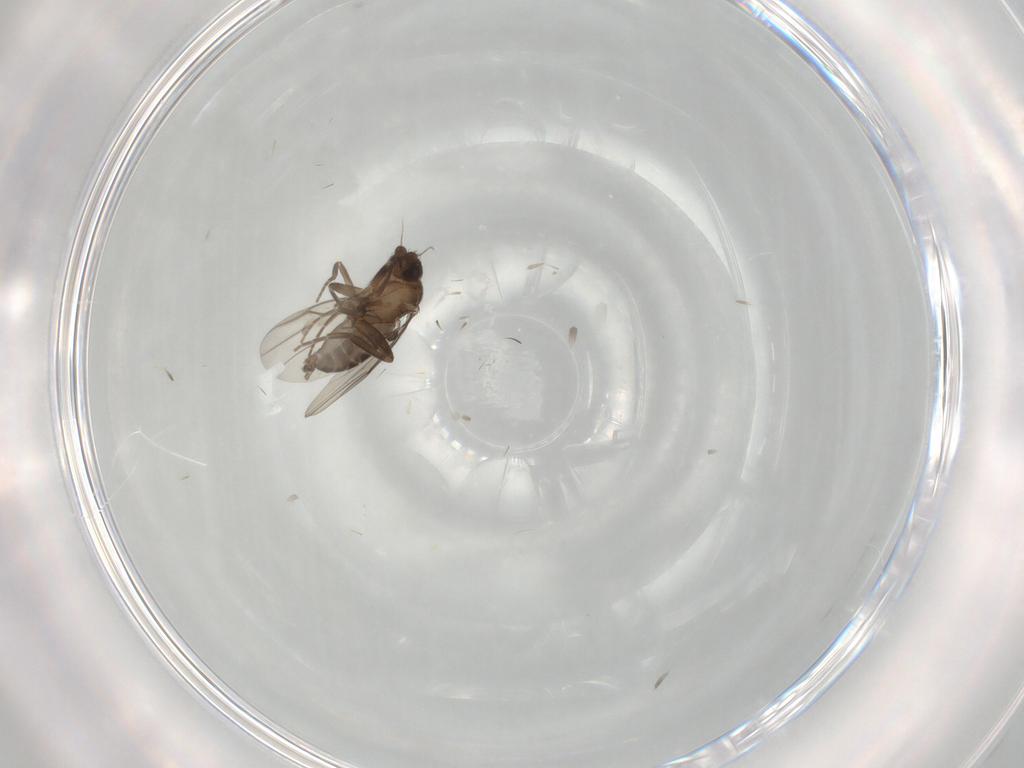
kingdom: Animalia
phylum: Arthropoda
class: Insecta
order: Diptera
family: Phoridae
